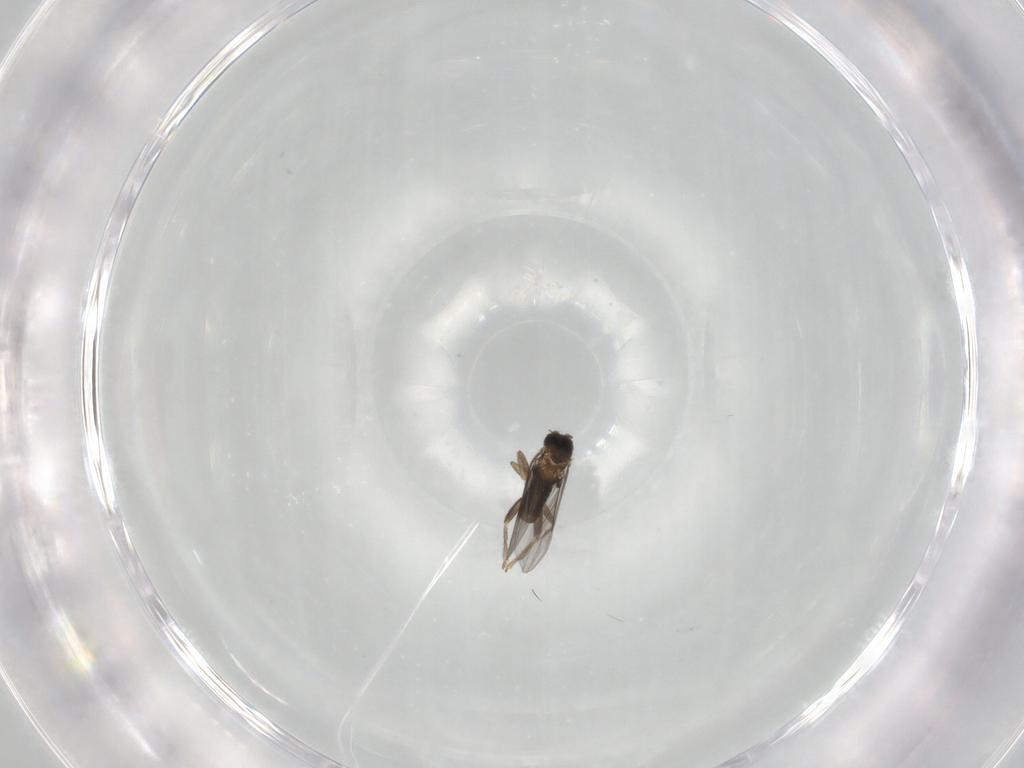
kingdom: Animalia
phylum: Arthropoda
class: Insecta
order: Diptera
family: Phoridae
